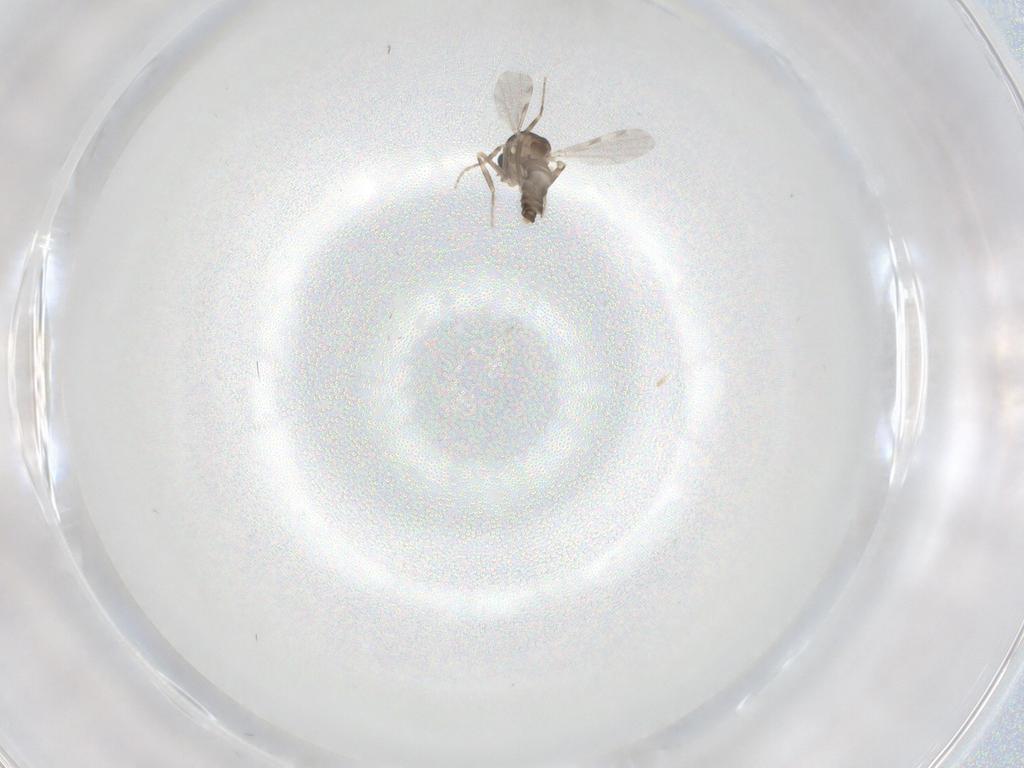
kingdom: Animalia
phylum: Arthropoda
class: Insecta
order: Diptera
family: Ceratopogonidae
